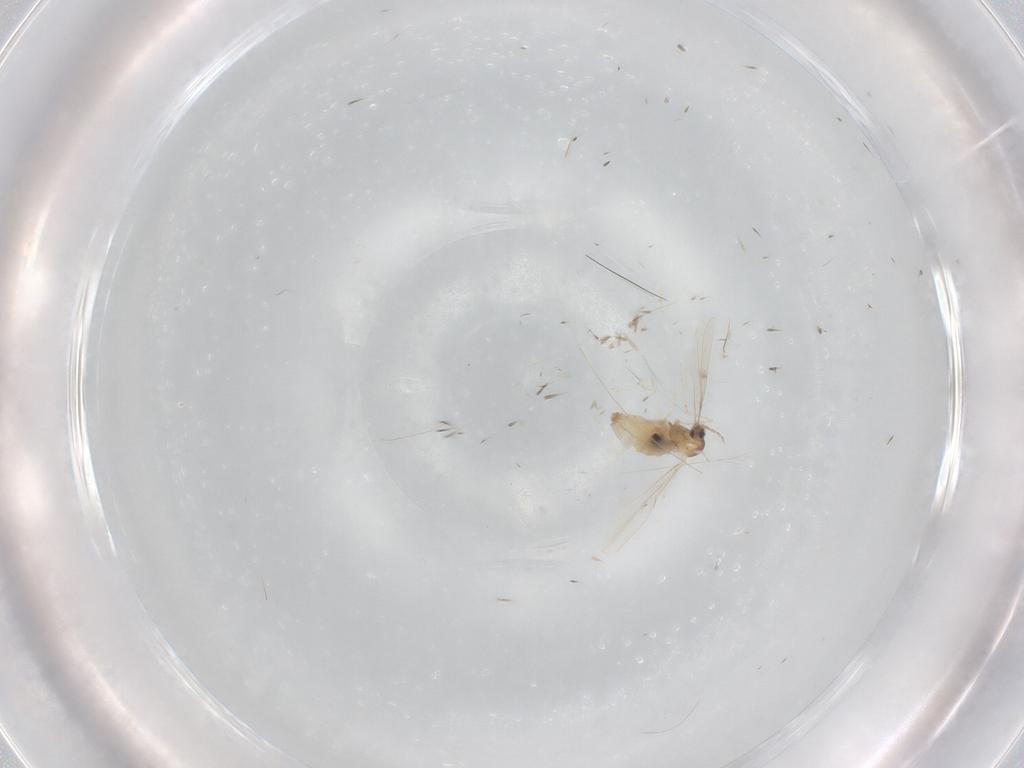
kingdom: Animalia
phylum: Arthropoda
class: Insecta
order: Diptera
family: Cecidomyiidae
